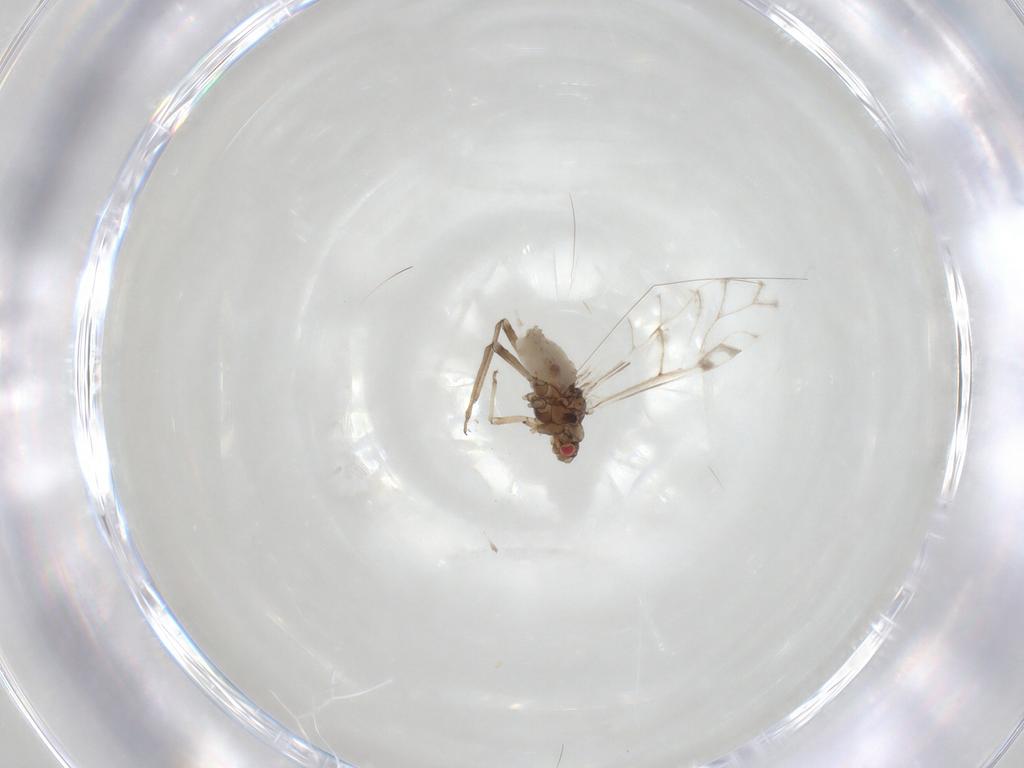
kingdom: Animalia
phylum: Arthropoda
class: Insecta
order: Hemiptera
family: Aphididae
